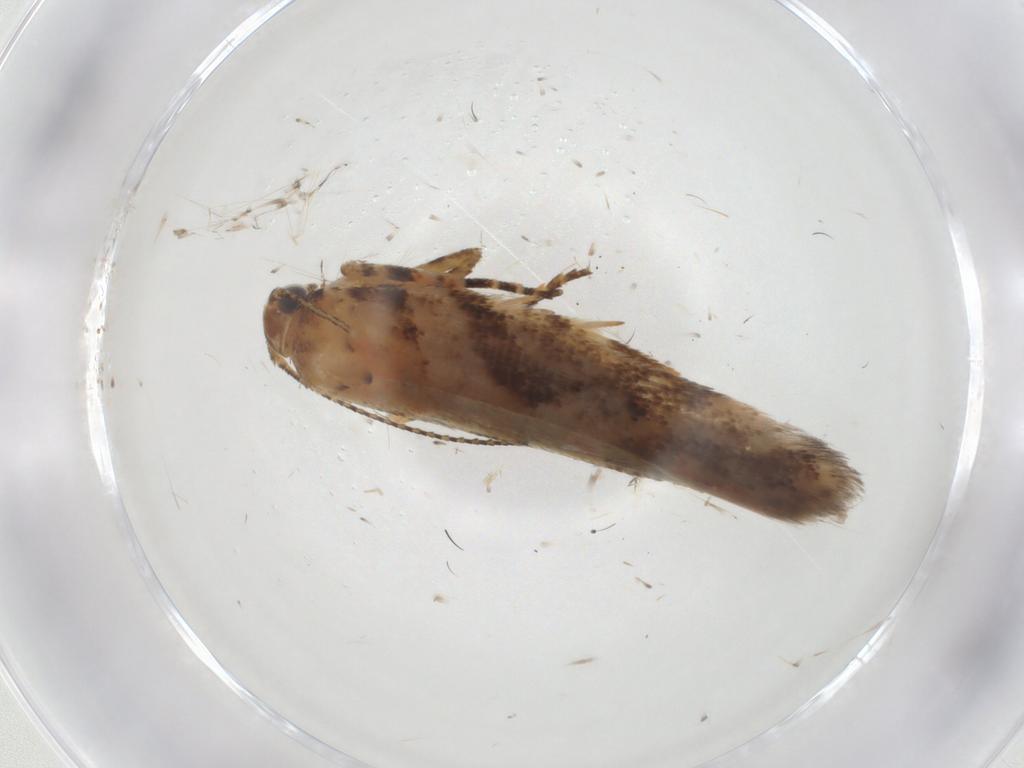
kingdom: Animalia
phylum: Arthropoda
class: Insecta
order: Lepidoptera
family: Gelechiidae
